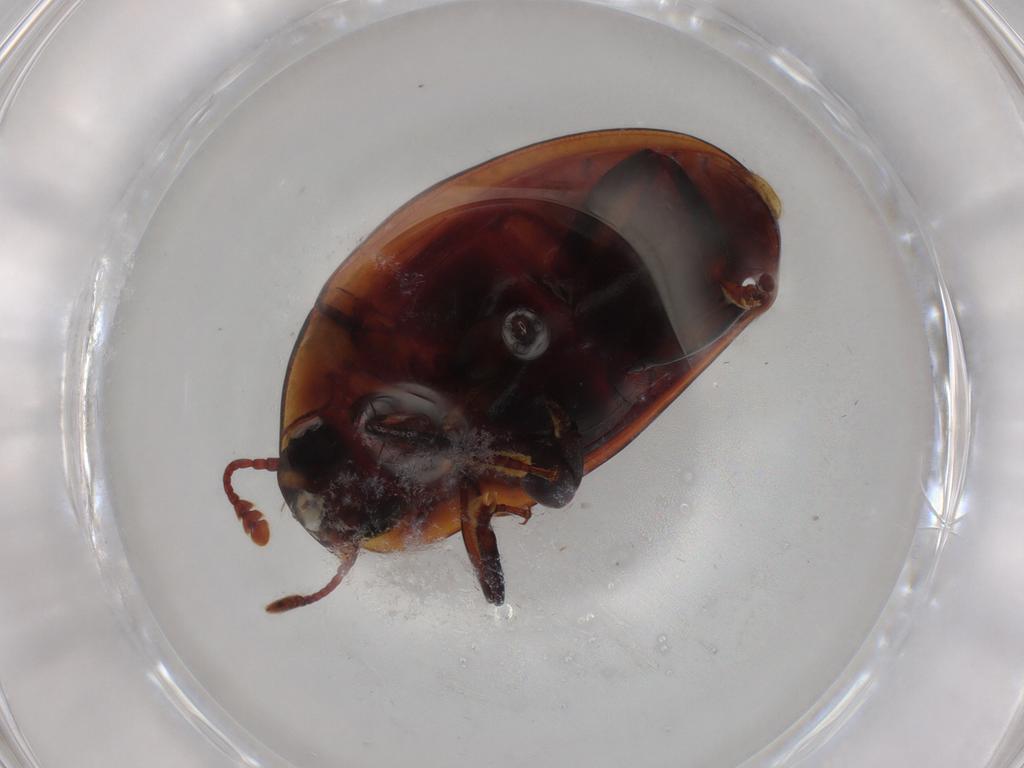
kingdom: Animalia
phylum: Arthropoda
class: Insecta
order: Coleoptera
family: Zopheridae
